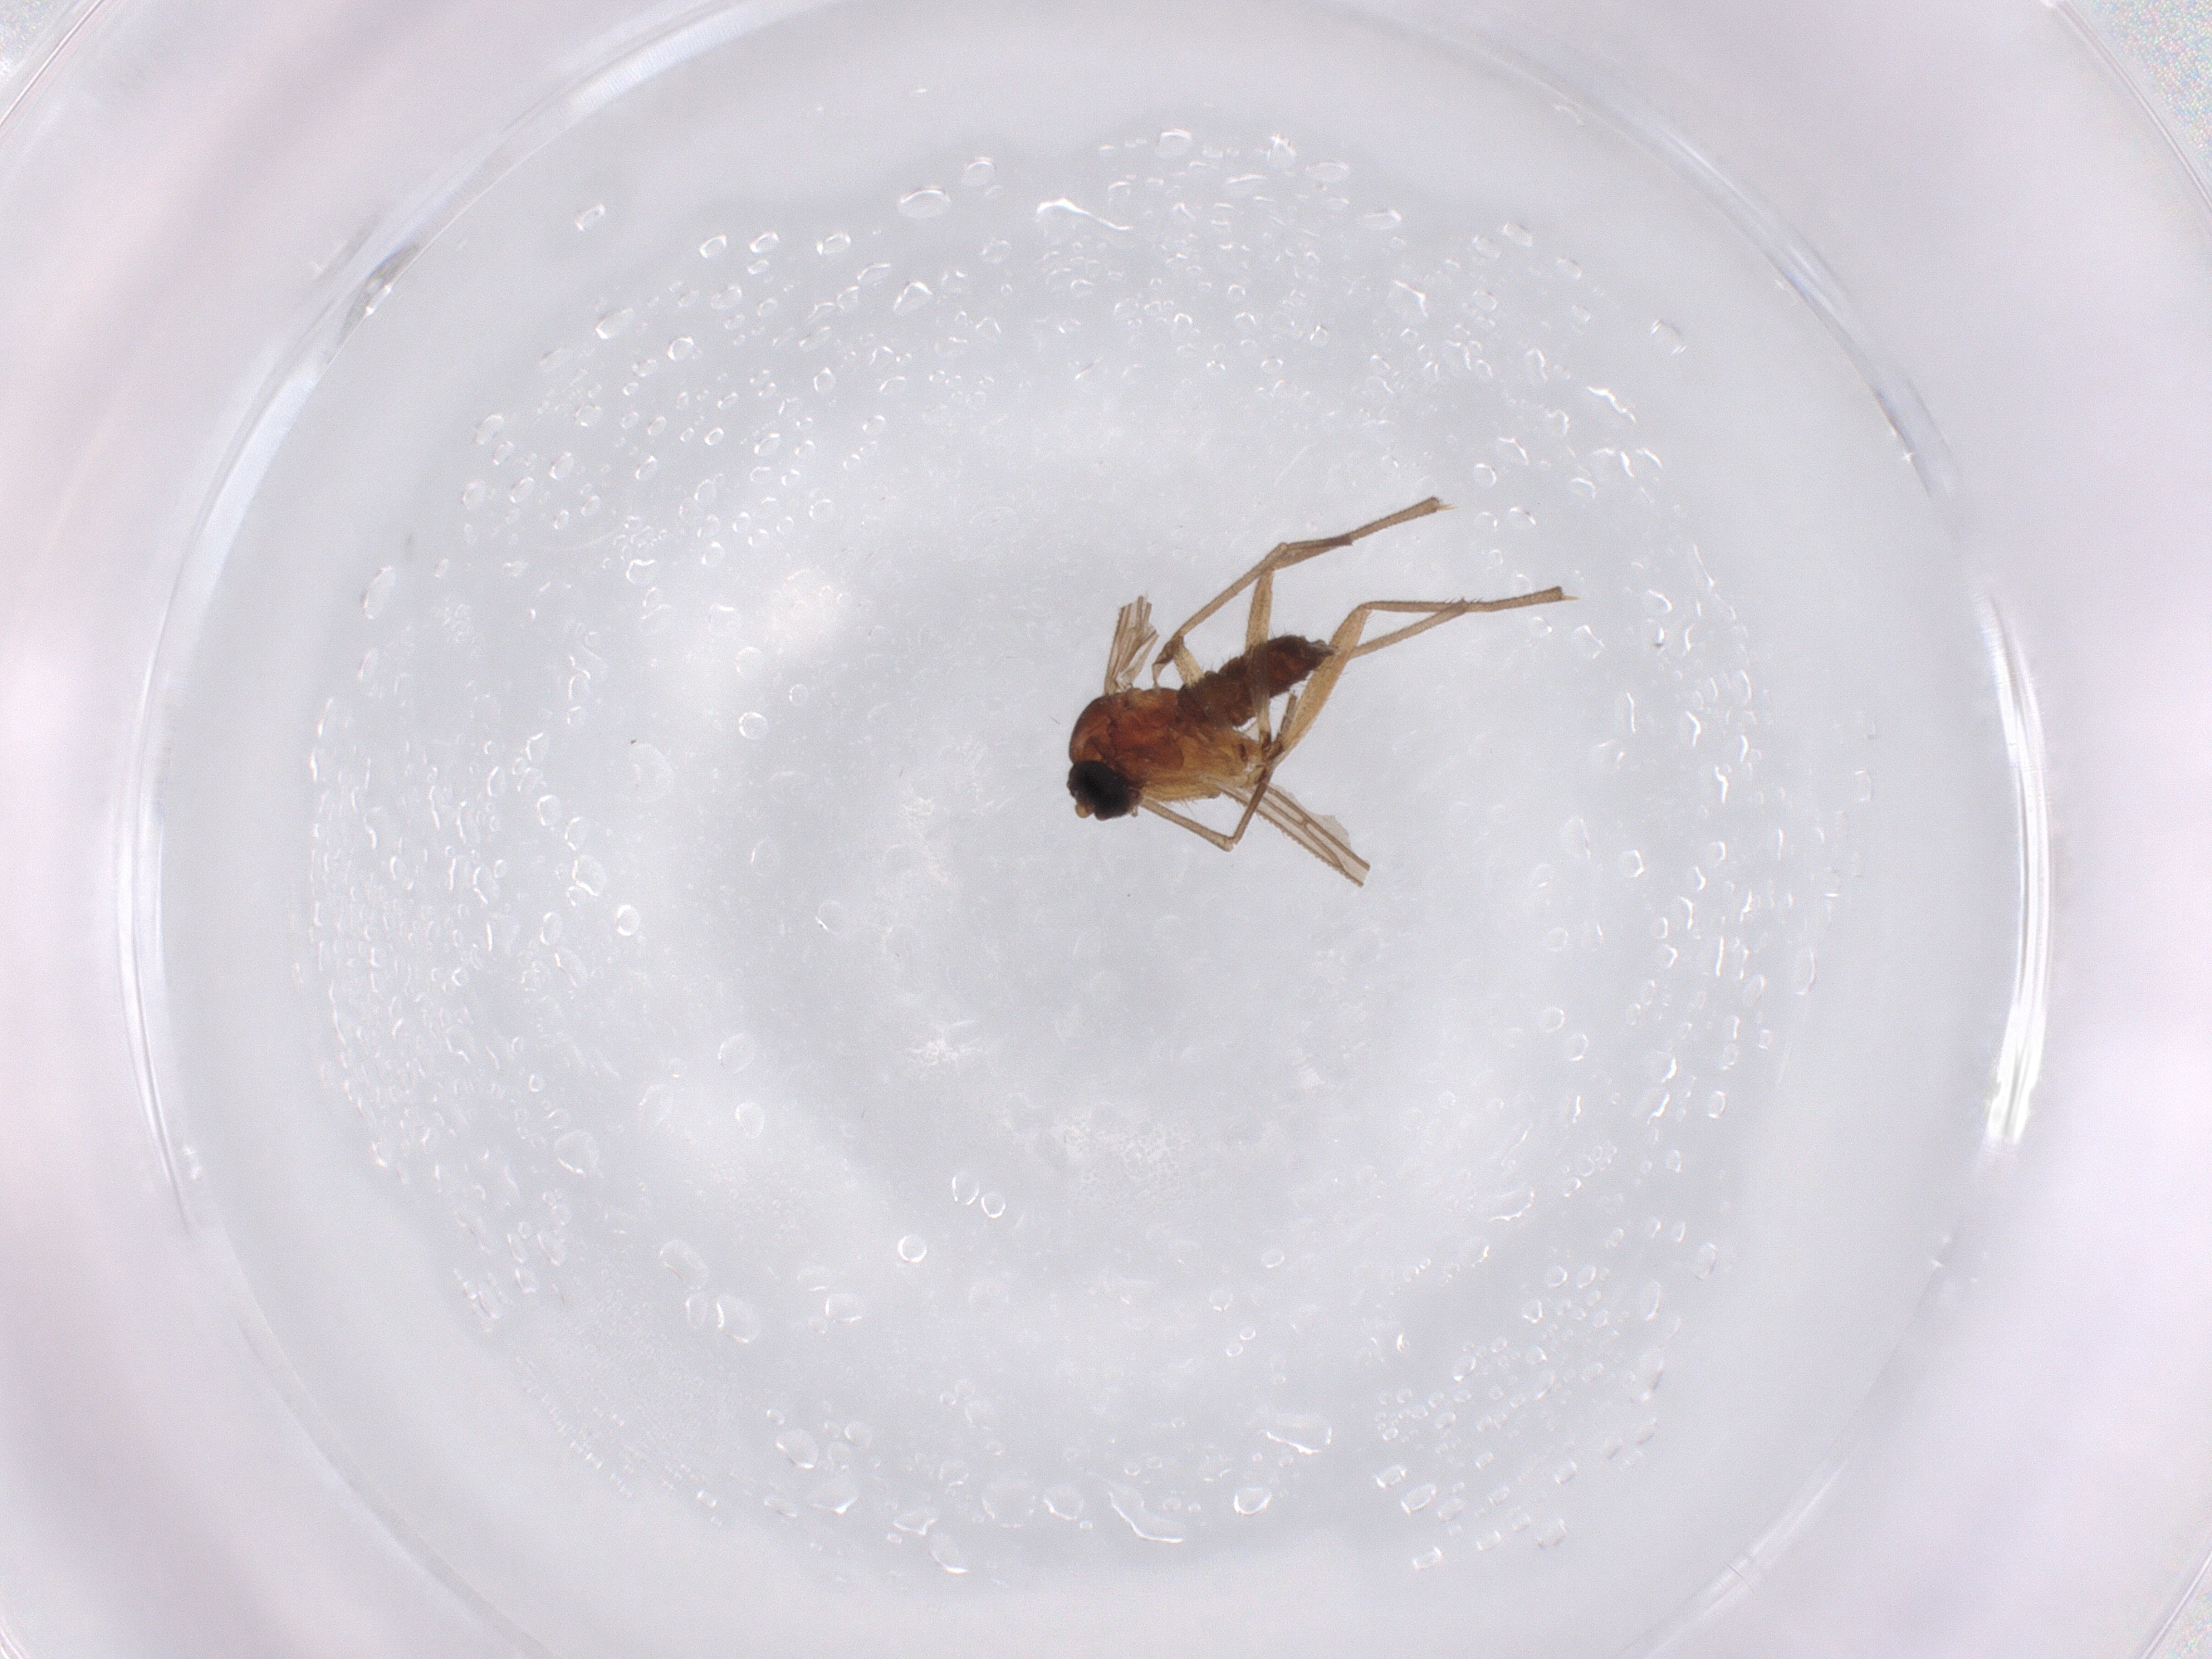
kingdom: Animalia
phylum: Arthropoda
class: Insecta
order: Diptera
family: Sciaridae
